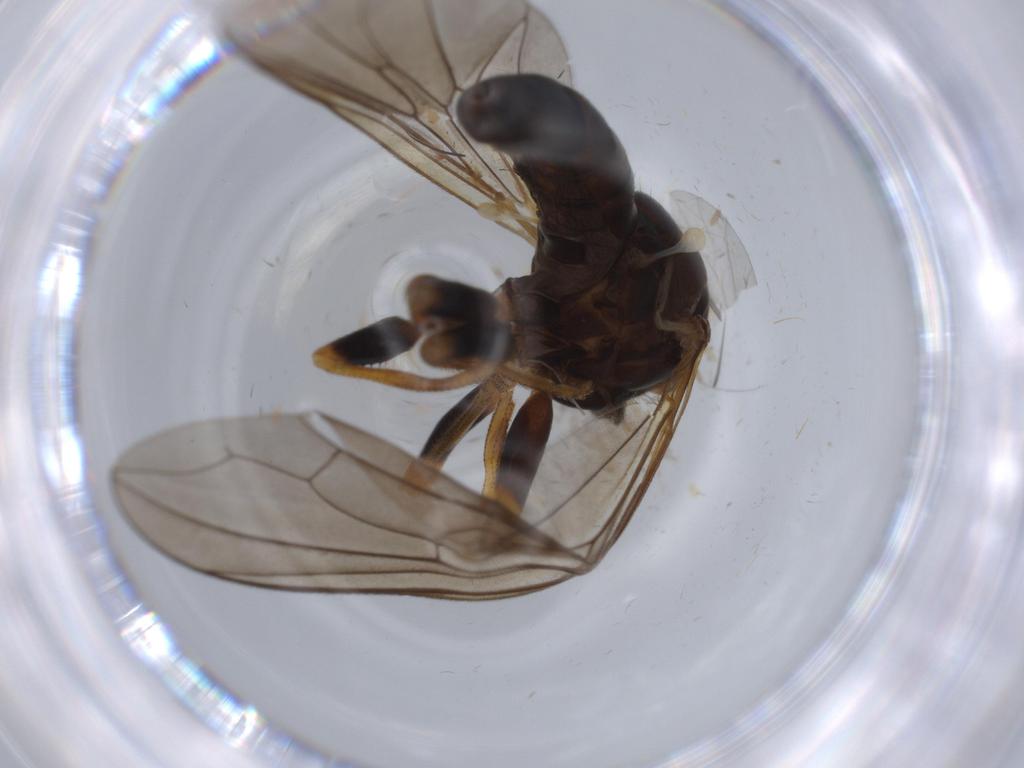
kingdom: Animalia
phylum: Arthropoda
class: Insecta
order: Diptera
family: Pipunculidae
